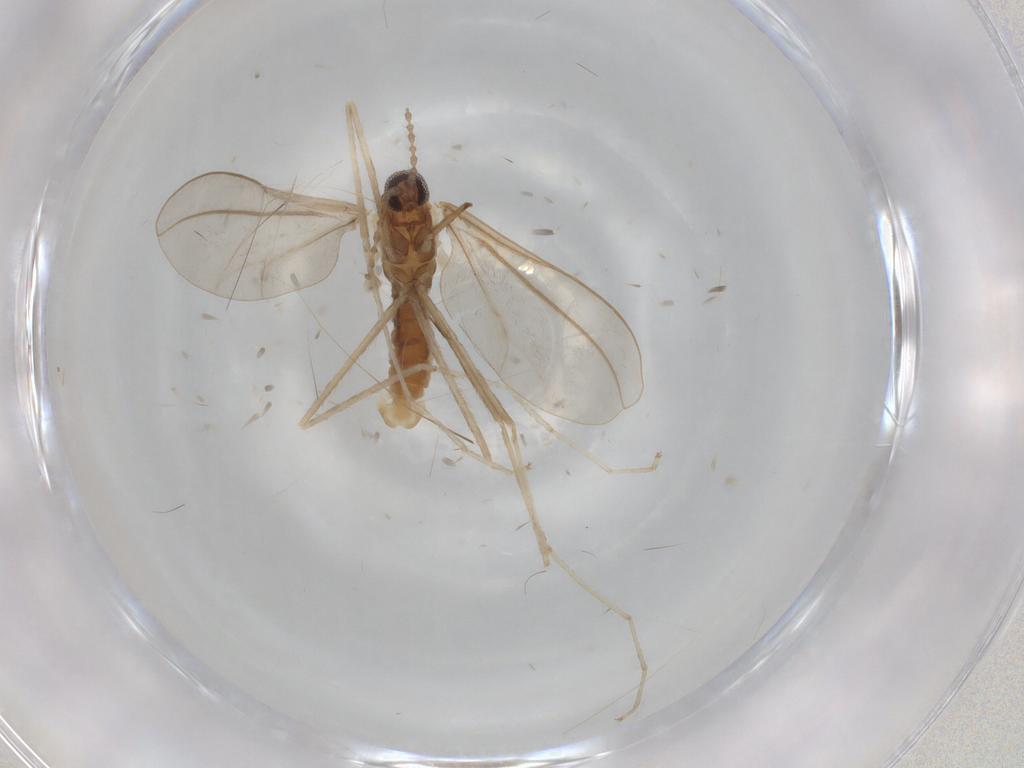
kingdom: Animalia
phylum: Arthropoda
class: Insecta
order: Diptera
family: Cecidomyiidae
